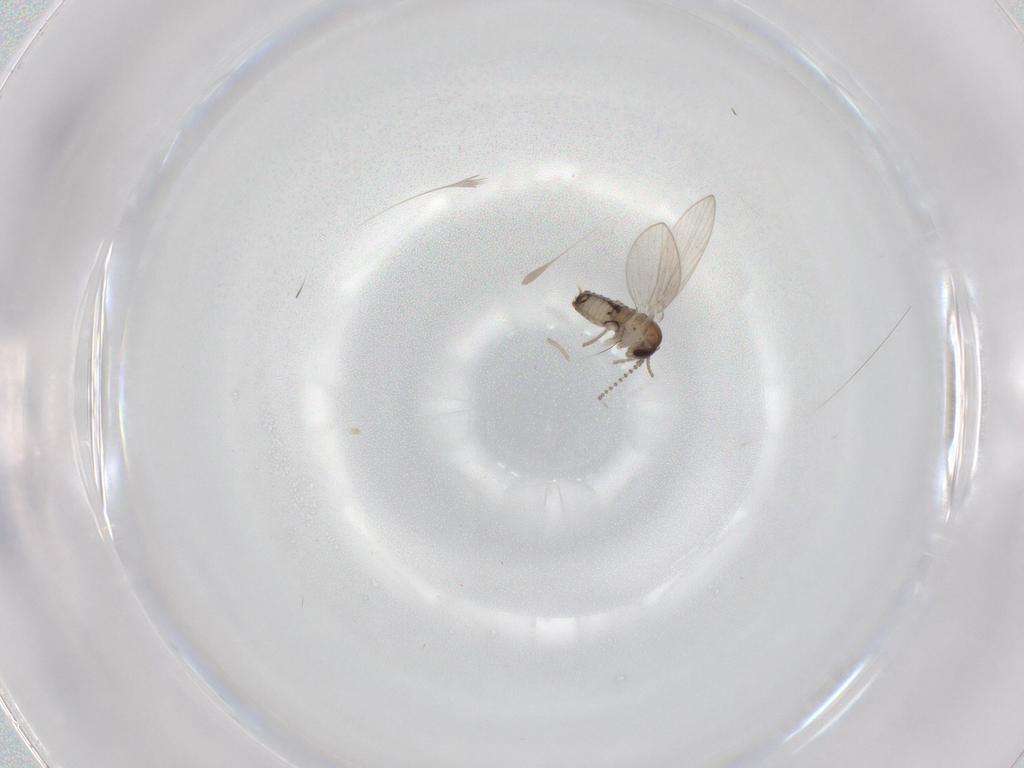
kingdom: Animalia
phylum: Arthropoda
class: Insecta
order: Diptera
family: Psychodidae
